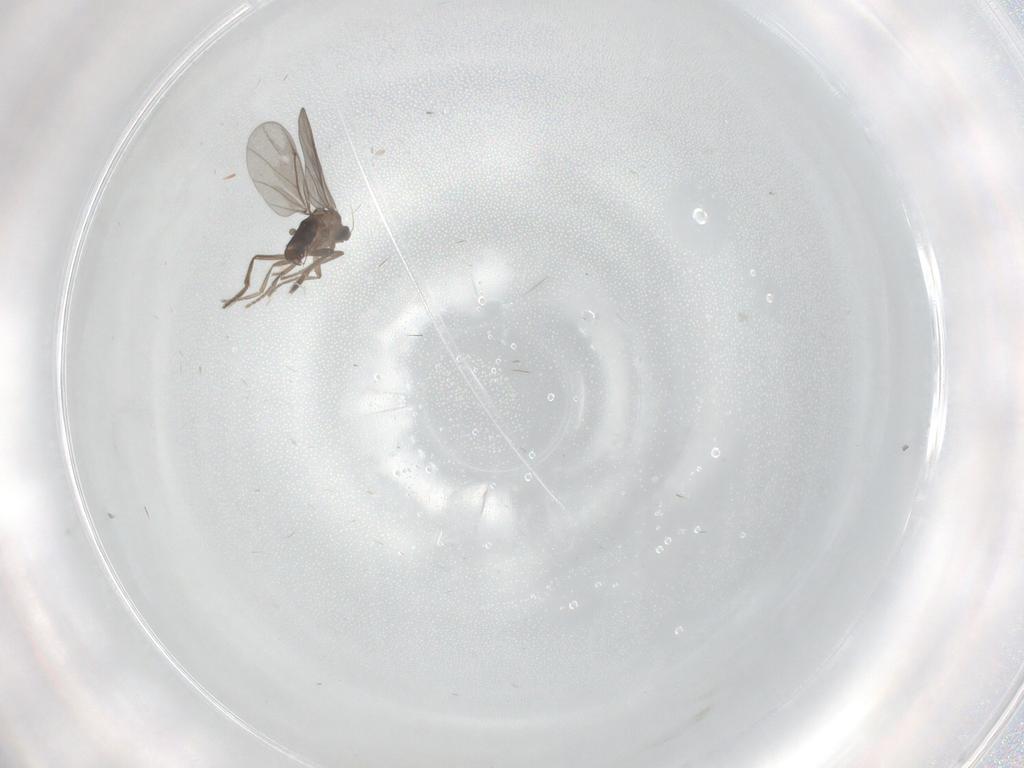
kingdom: Animalia
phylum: Arthropoda
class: Insecta
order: Diptera
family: Phoridae
